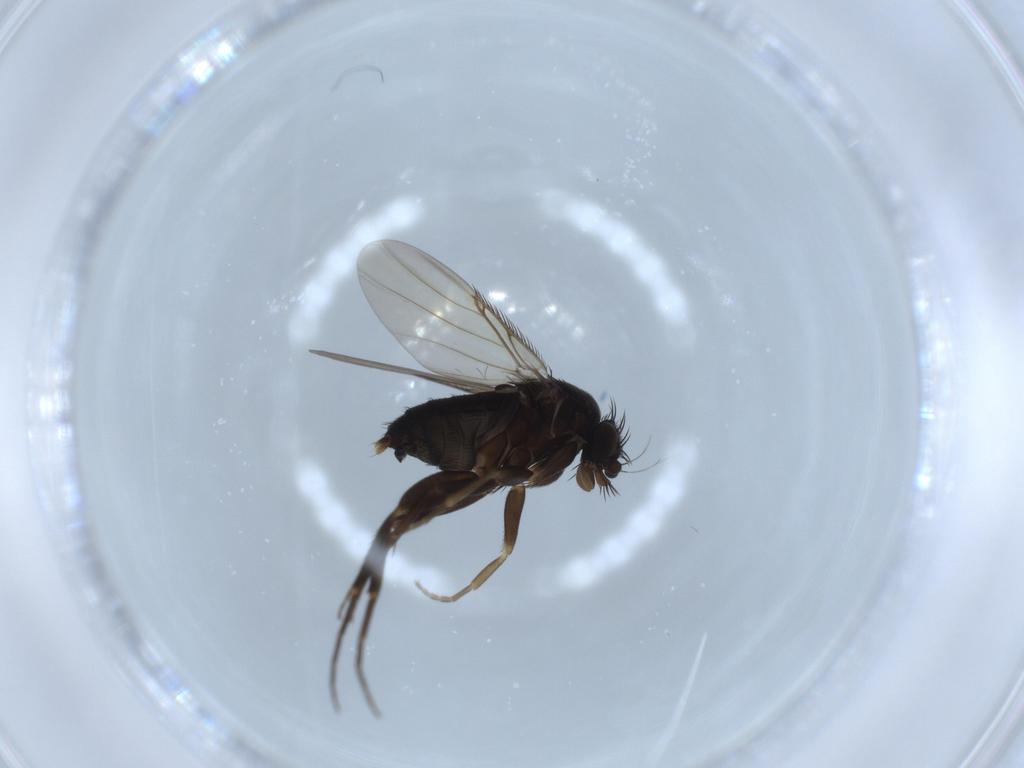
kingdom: Animalia
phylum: Arthropoda
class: Insecta
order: Diptera
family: Phoridae
